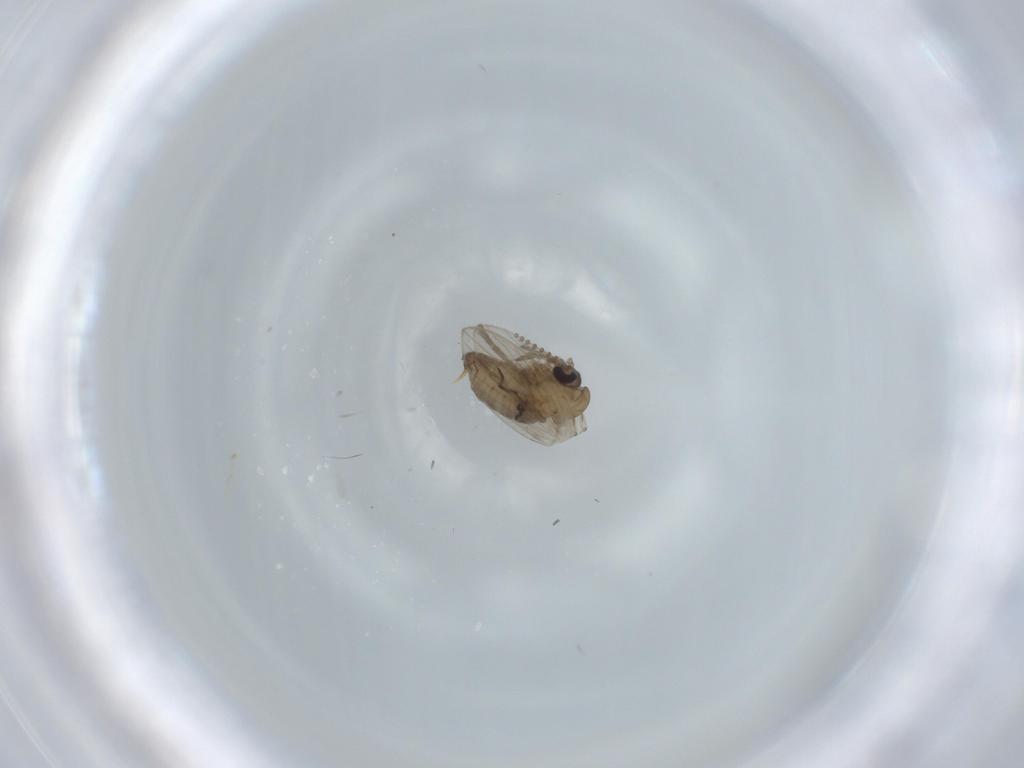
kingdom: Animalia
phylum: Arthropoda
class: Insecta
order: Diptera
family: Psychodidae
